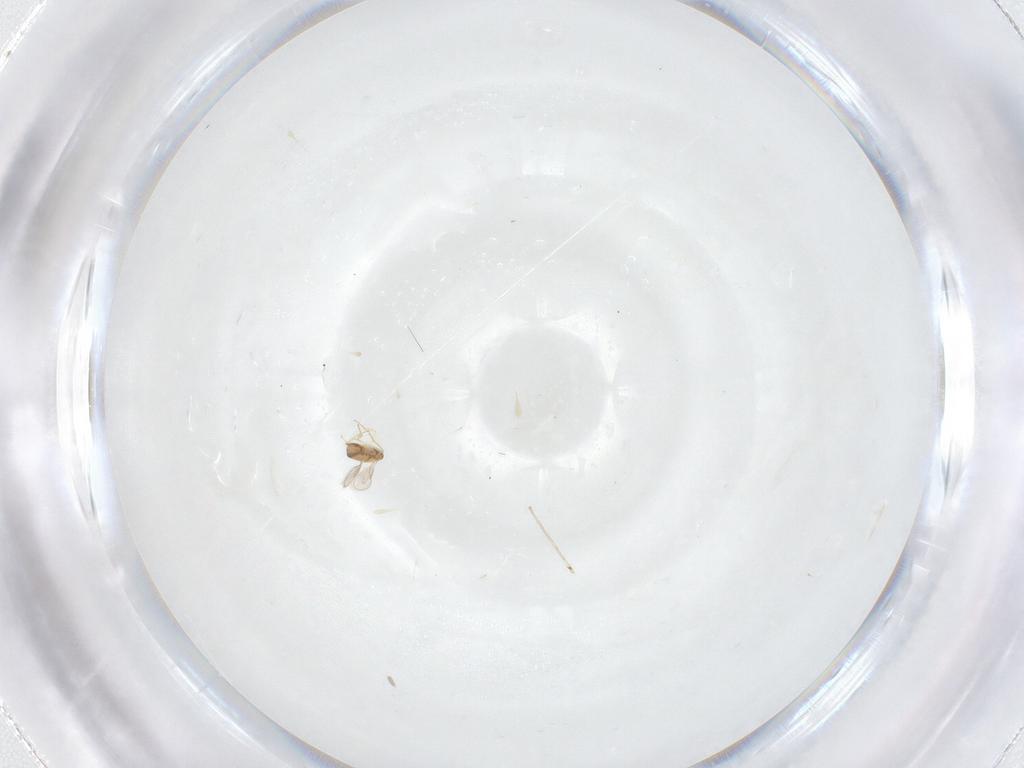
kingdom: Animalia
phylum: Arthropoda
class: Insecta
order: Hymenoptera
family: Aphelinidae
